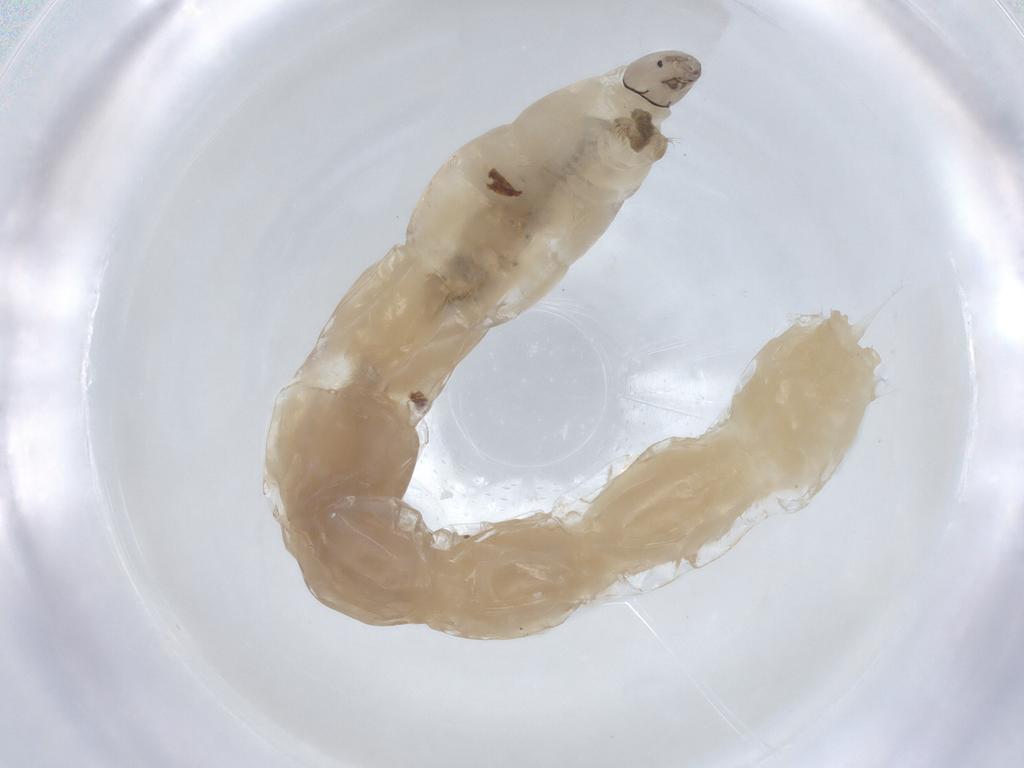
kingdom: Animalia
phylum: Arthropoda
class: Insecta
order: Diptera
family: Chironomidae
